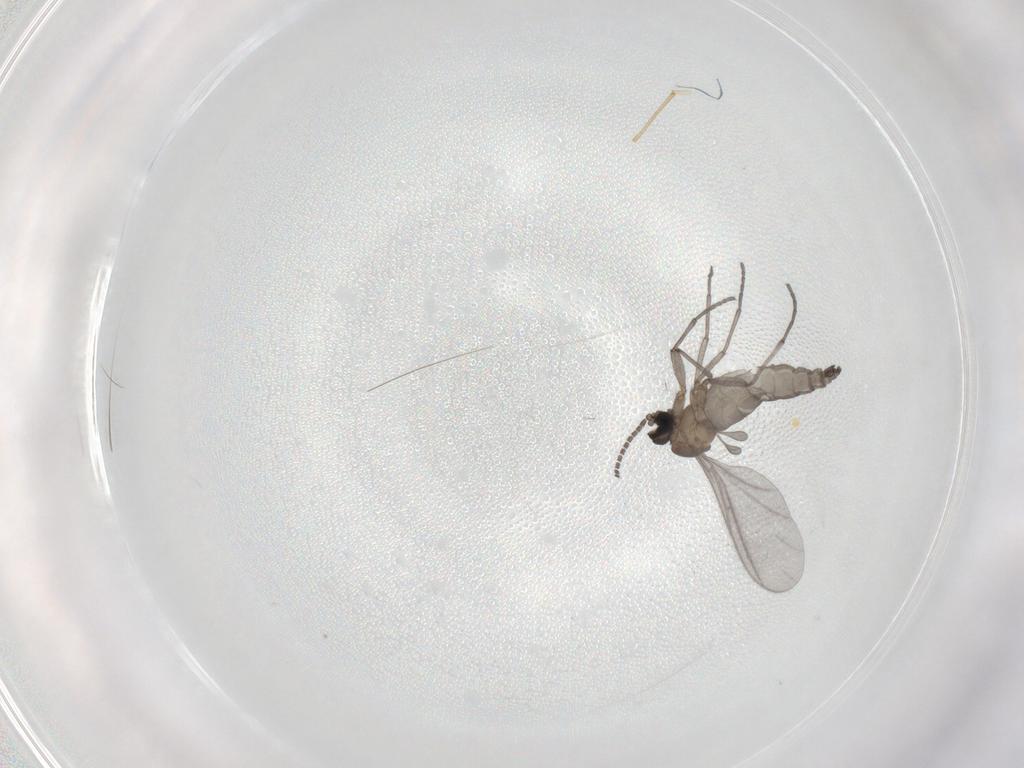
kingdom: Animalia
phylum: Arthropoda
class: Insecta
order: Diptera
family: Sciaridae
